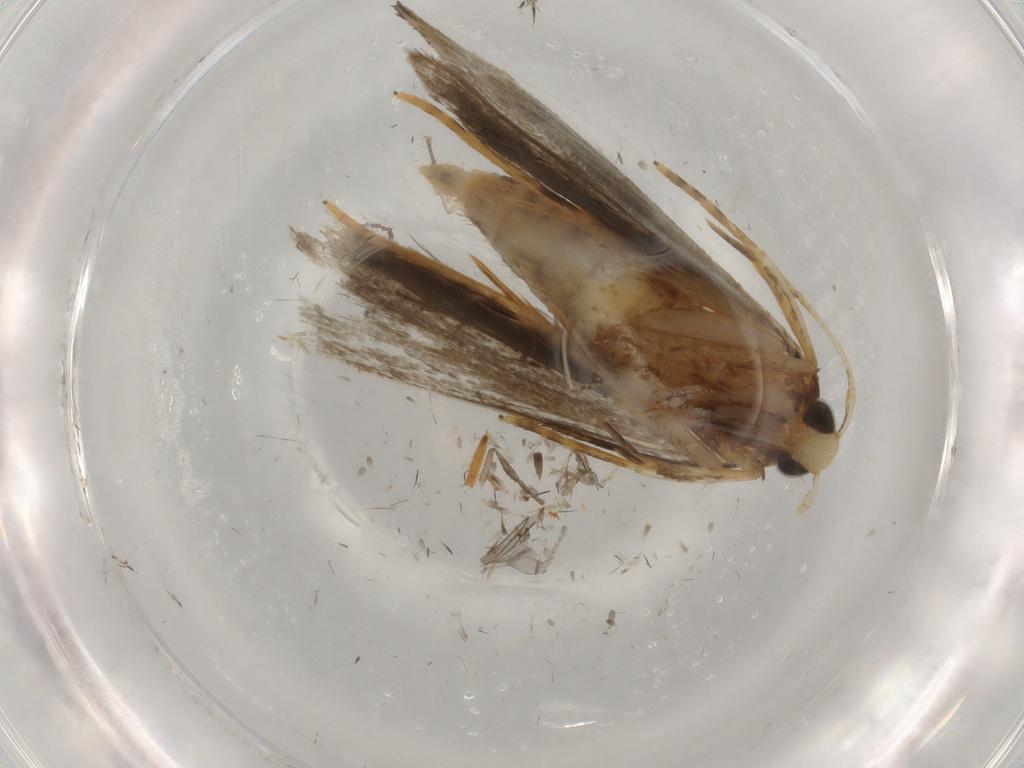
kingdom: Animalia
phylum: Arthropoda
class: Insecta
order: Lepidoptera
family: Autostichidae
